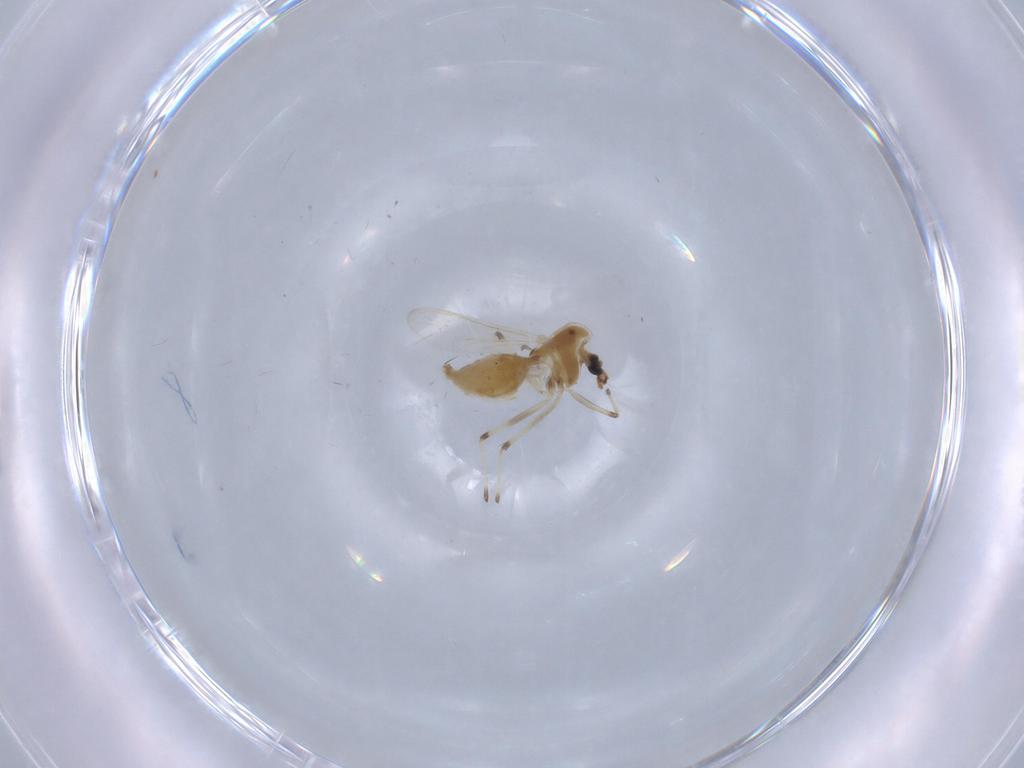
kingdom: Animalia
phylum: Arthropoda
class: Insecta
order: Diptera
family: Chironomidae
